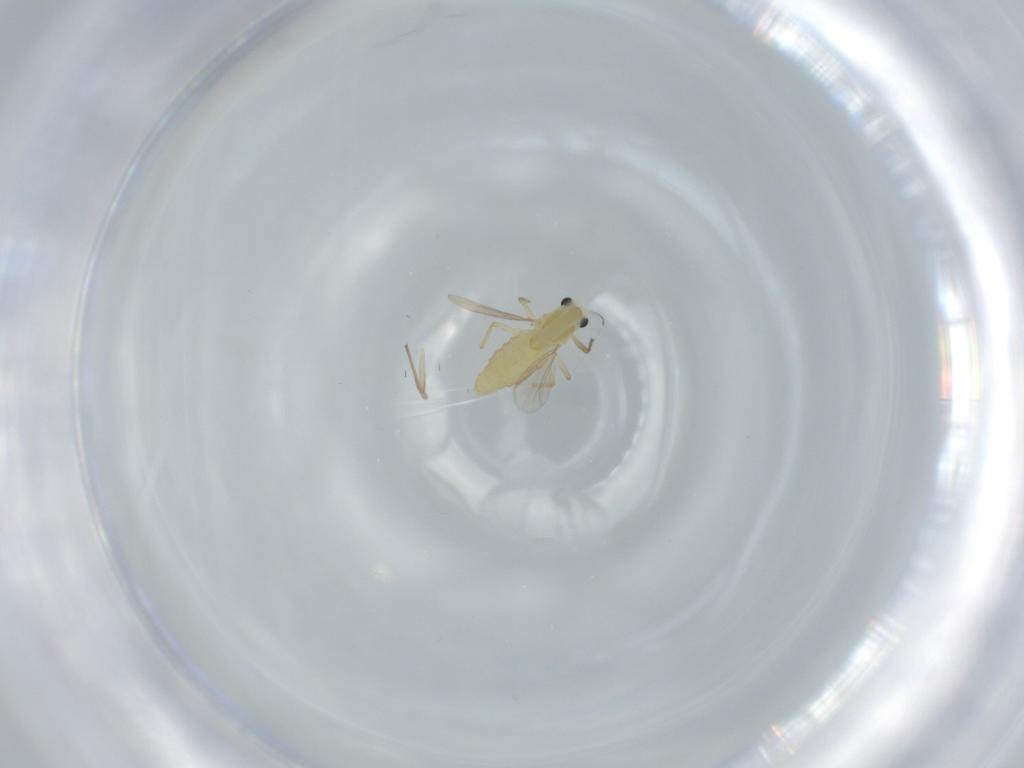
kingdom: Animalia
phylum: Arthropoda
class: Insecta
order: Diptera
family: Chironomidae
